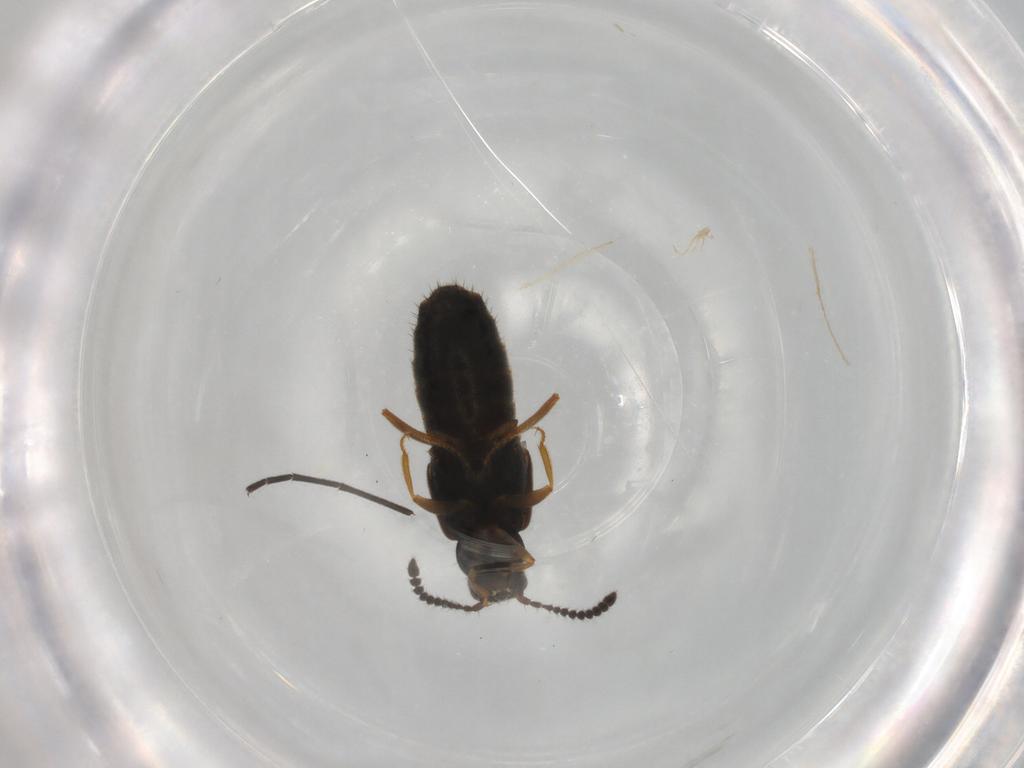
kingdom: Animalia
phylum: Arthropoda
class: Insecta
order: Coleoptera
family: Staphylinidae
